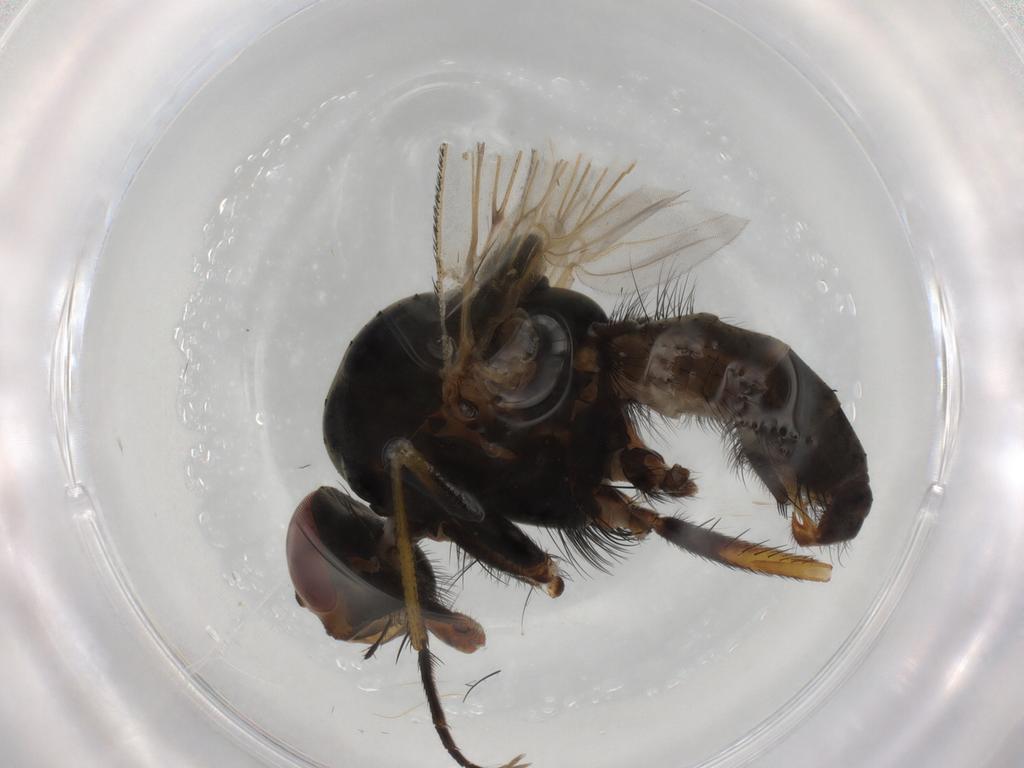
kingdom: Animalia
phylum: Arthropoda
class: Insecta
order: Diptera
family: Anthomyiidae
